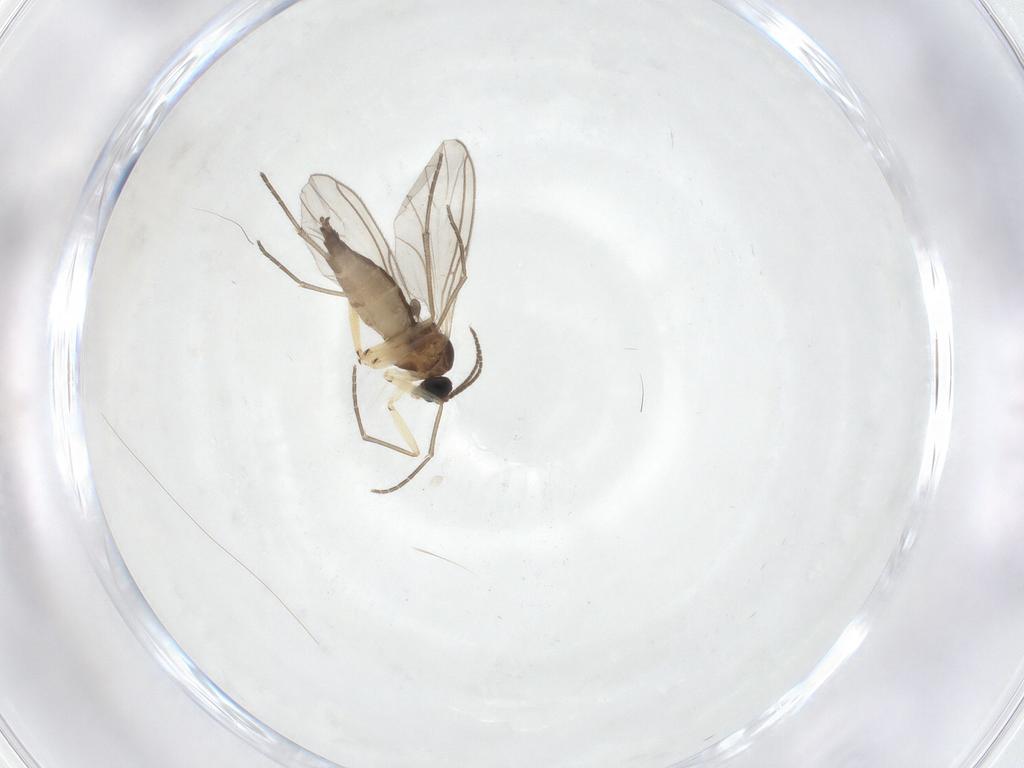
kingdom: Animalia
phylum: Arthropoda
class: Insecta
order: Diptera
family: Sciaridae
